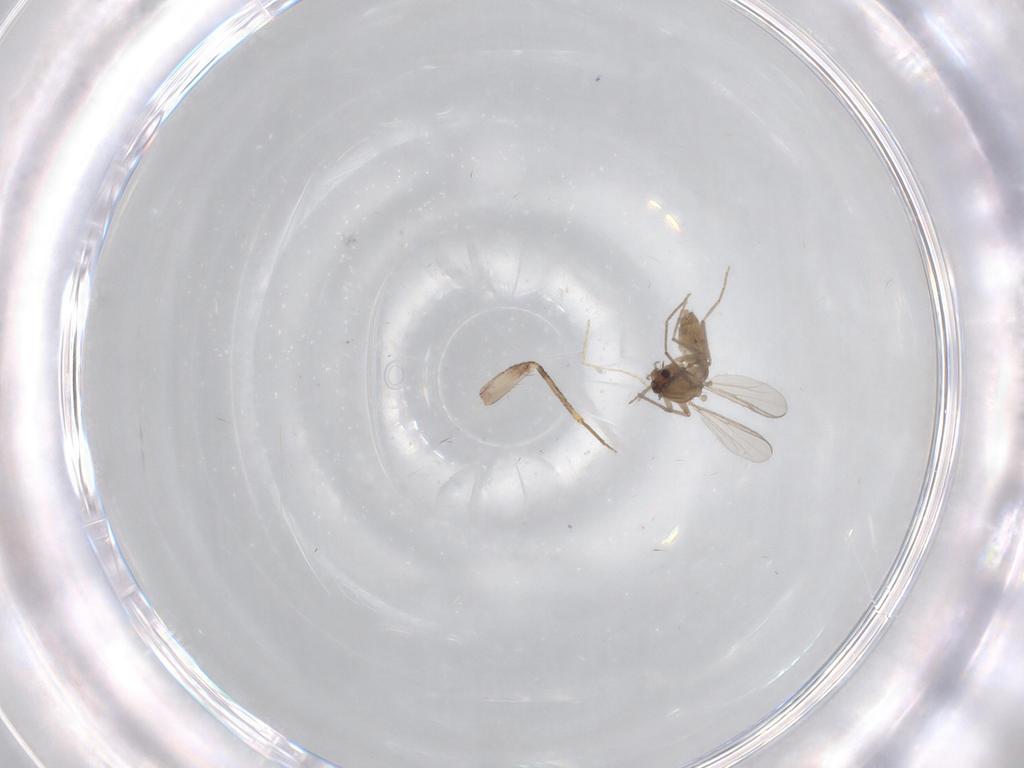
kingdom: Animalia
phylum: Arthropoda
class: Insecta
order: Diptera
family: Chironomidae
